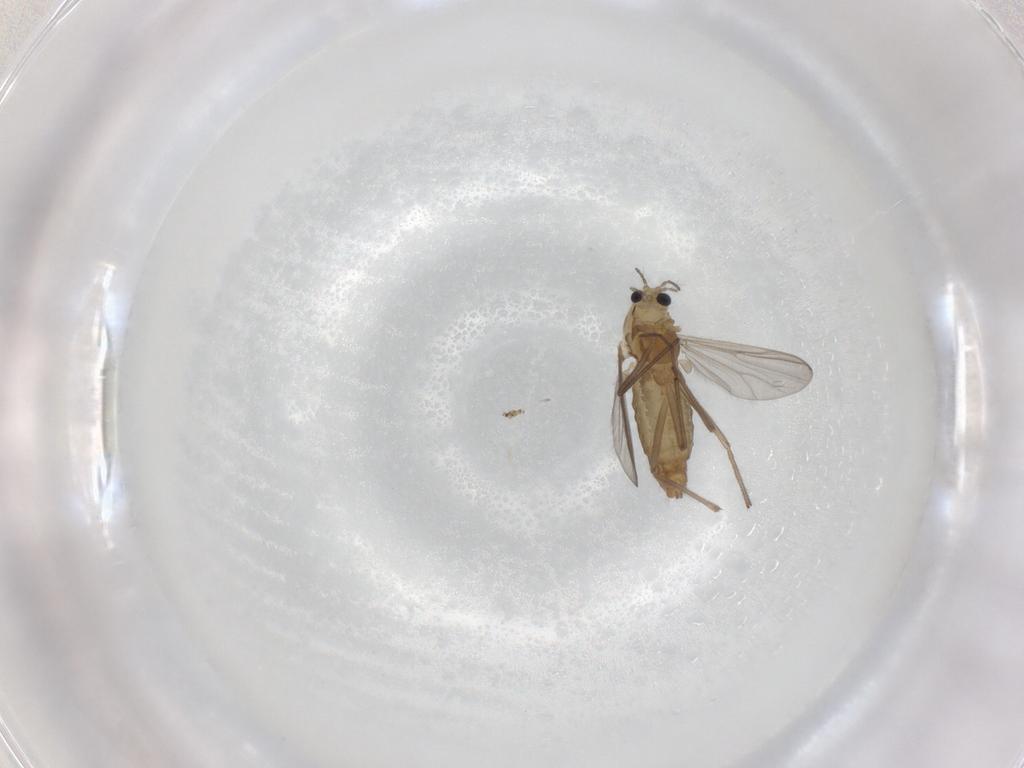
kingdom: Animalia
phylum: Arthropoda
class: Insecta
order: Diptera
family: Chironomidae
